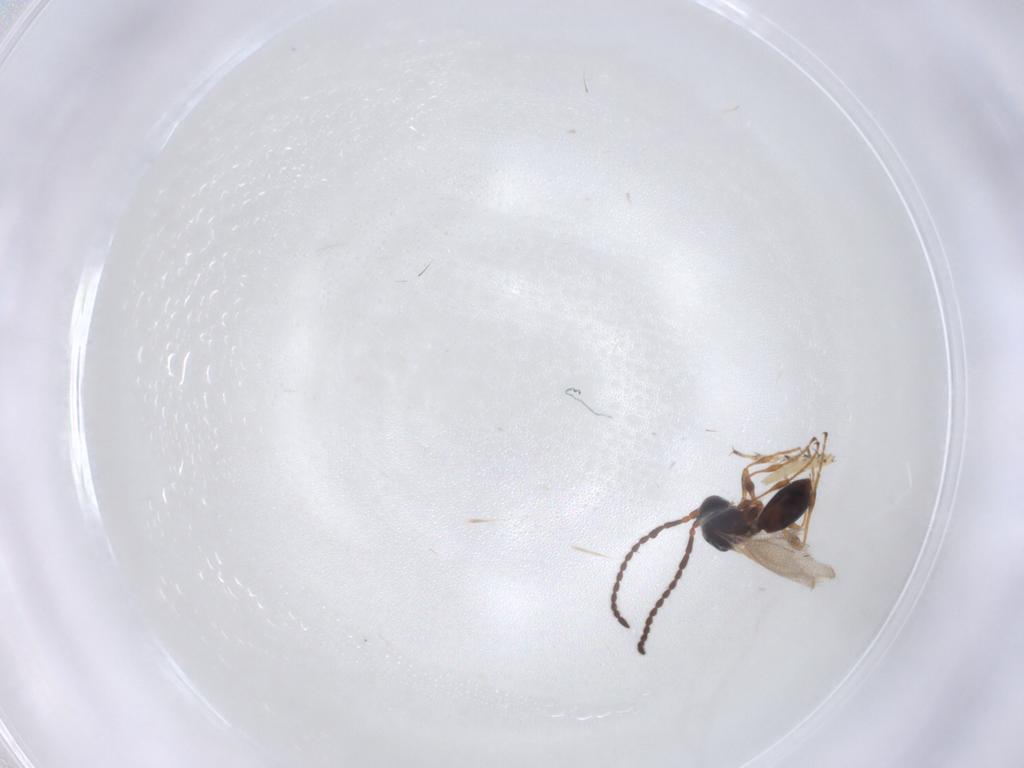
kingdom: Animalia
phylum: Arthropoda
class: Insecta
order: Hymenoptera
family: Diapriidae
